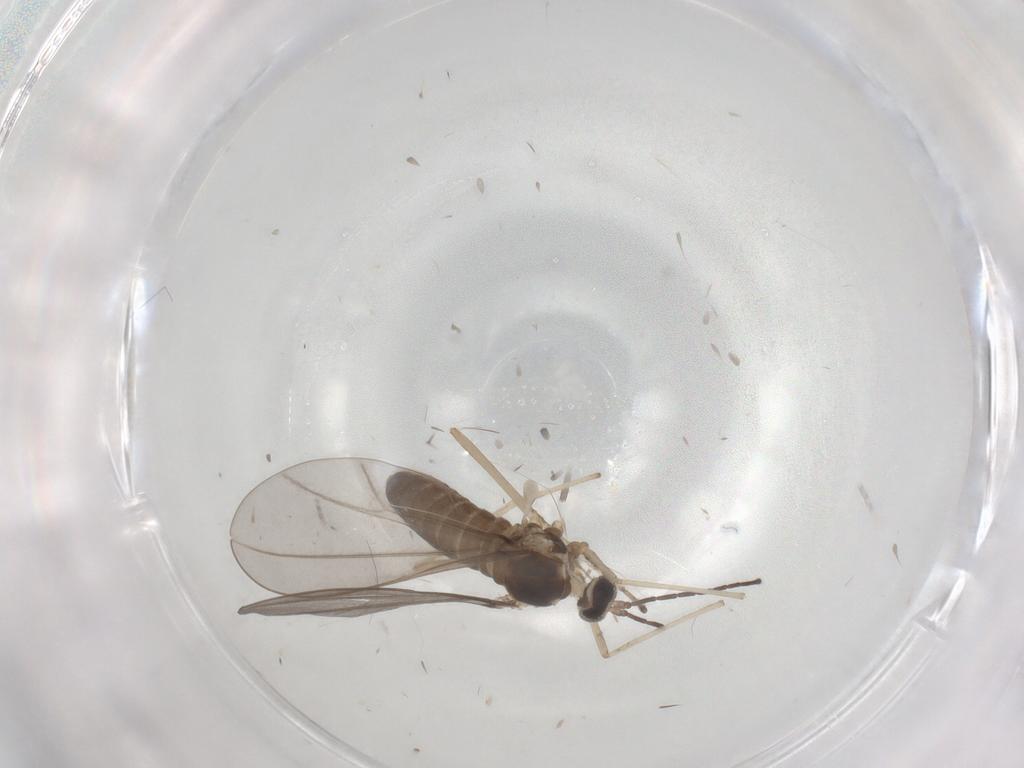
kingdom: Animalia
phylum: Arthropoda
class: Insecta
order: Diptera
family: Cecidomyiidae
